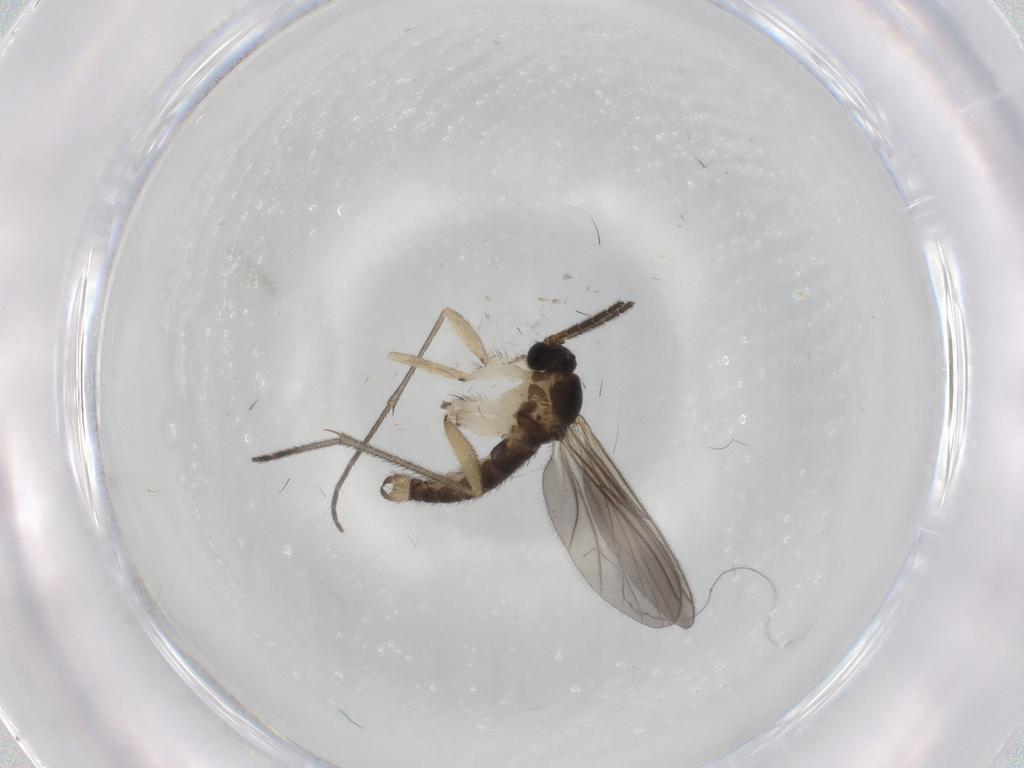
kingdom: Animalia
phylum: Arthropoda
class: Insecta
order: Diptera
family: Sciaridae
